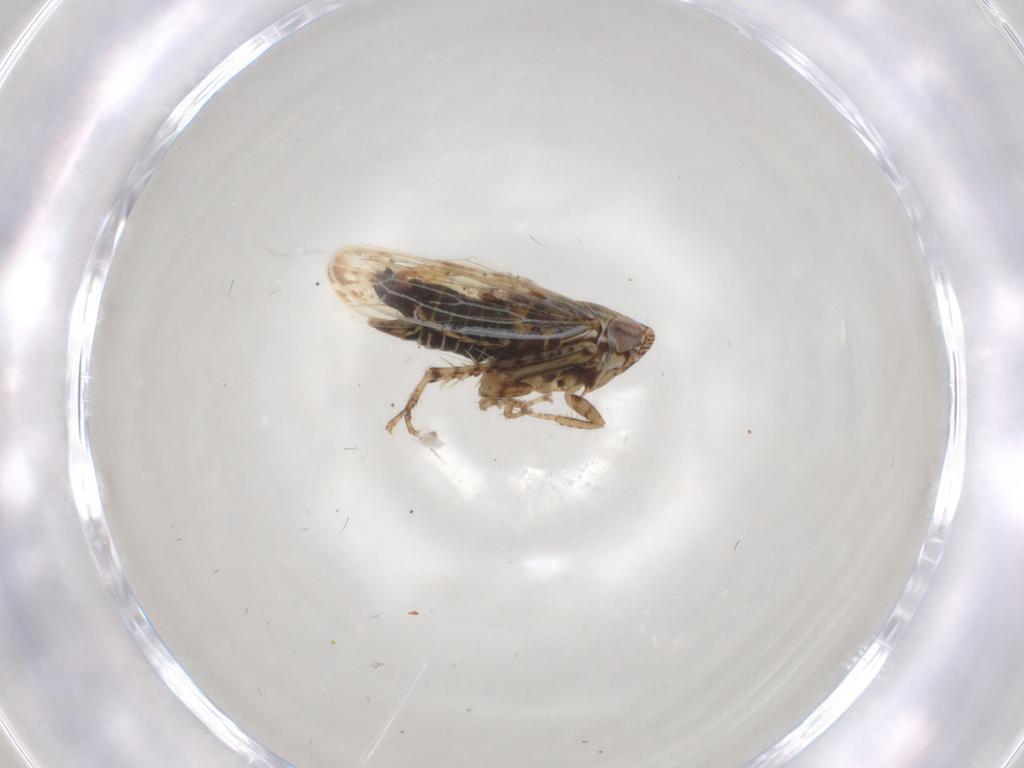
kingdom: Animalia
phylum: Arthropoda
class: Insecta
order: Hemiptera
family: Cicadellidae
